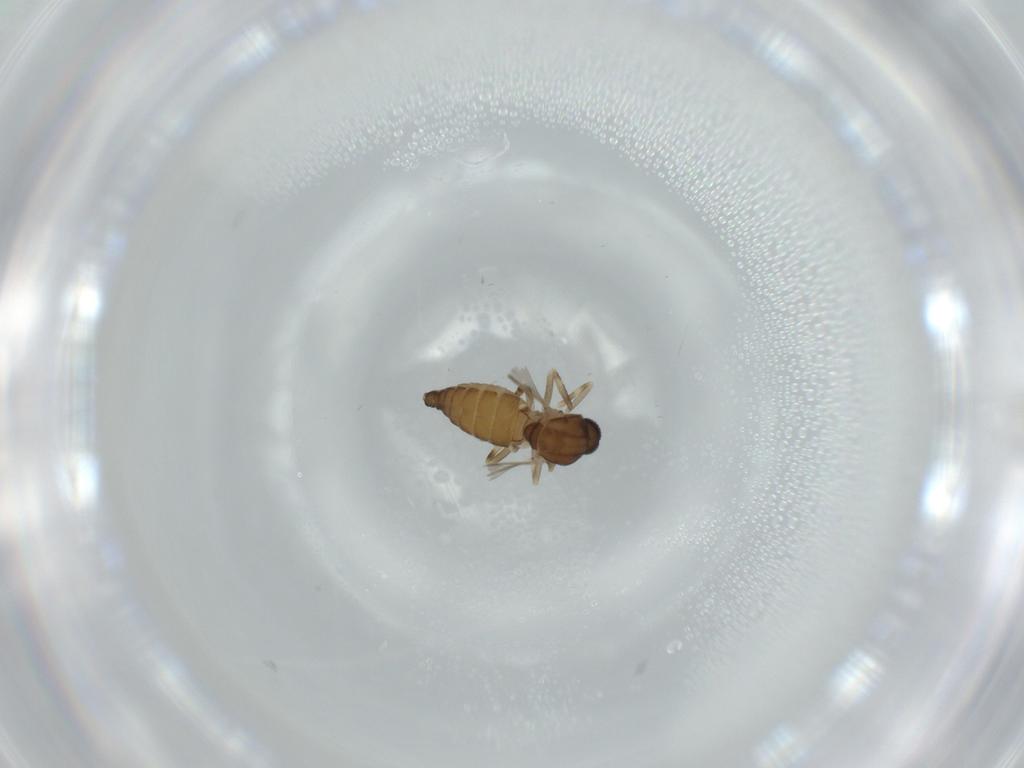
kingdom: Animalia
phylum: Arthropoda
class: Insecta
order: Diptera
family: Ceratopogonidae
